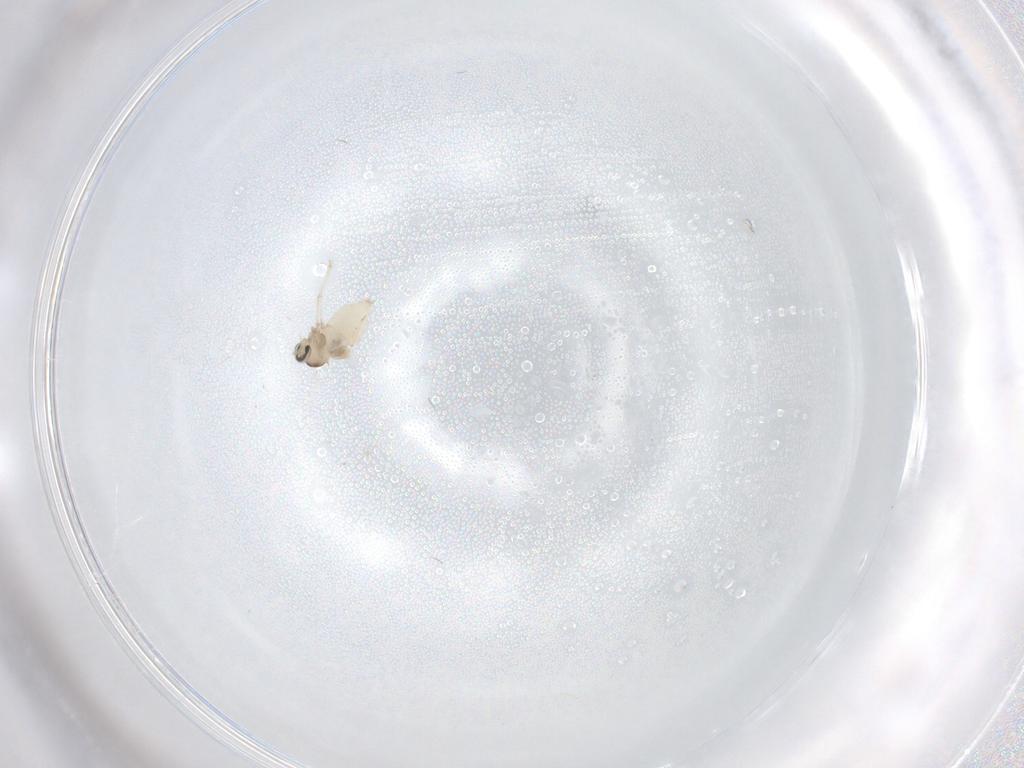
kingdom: Animalia
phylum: Arthropoda
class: Insecta
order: Diptera
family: Cecidomyiidae
